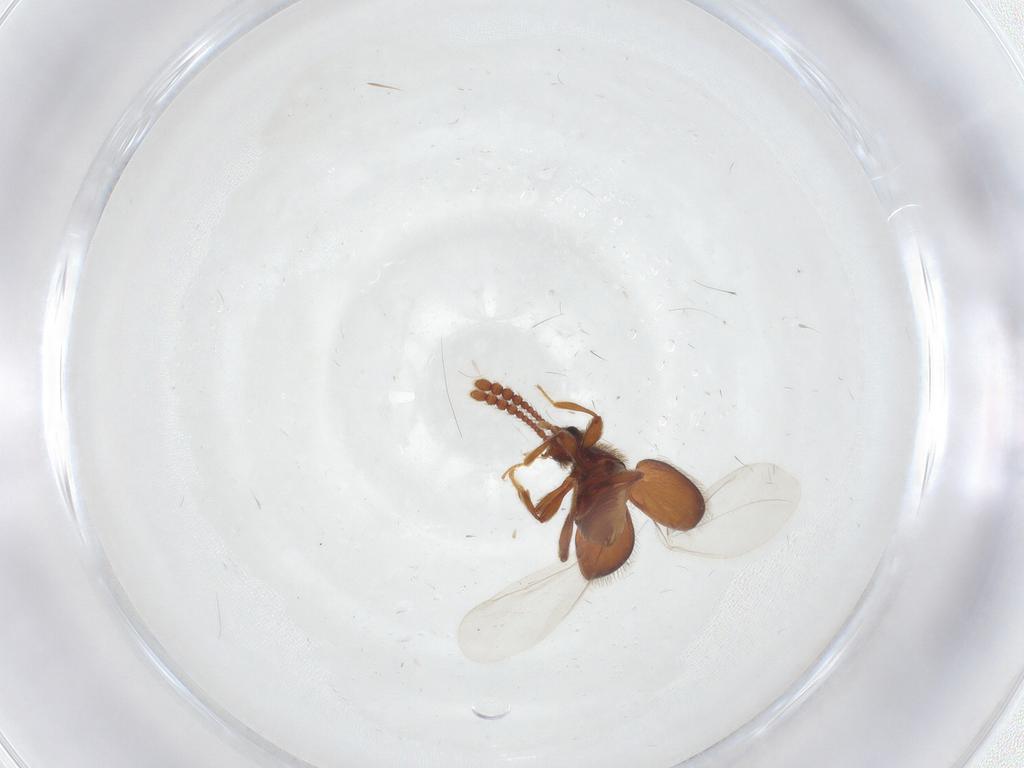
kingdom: Animalia
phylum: Arthropoda
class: Insecta
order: Coleoptera
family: Staphylinidae
